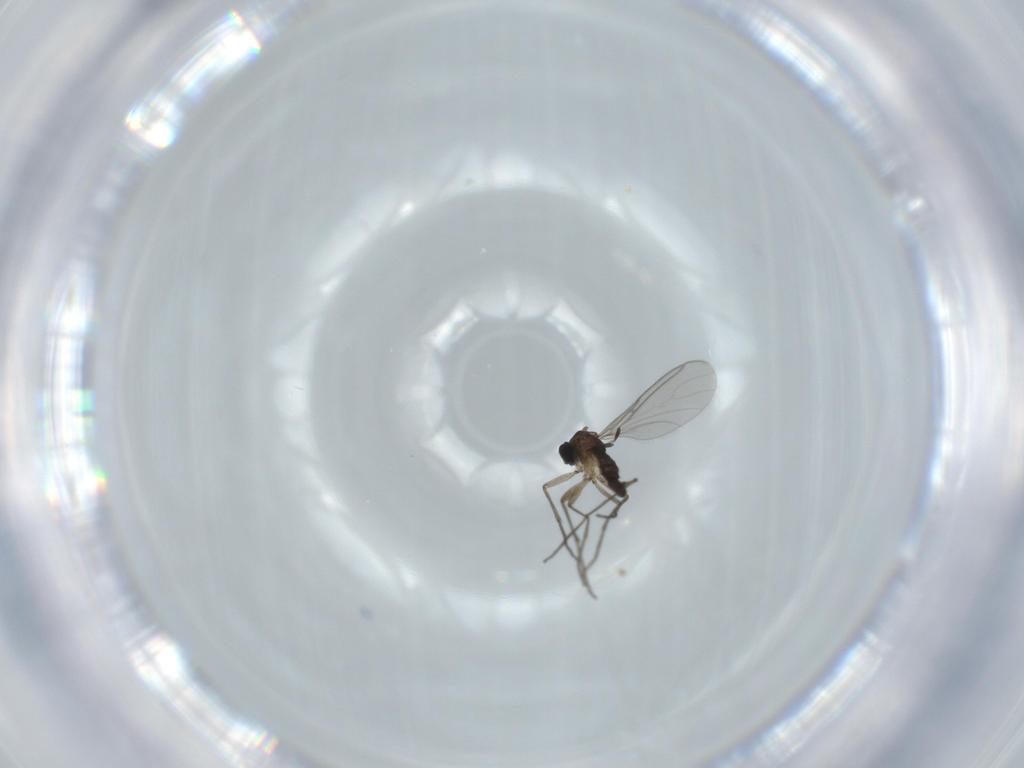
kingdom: Animalia
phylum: Arthropoda
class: Insecta
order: Diptera
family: Sciaridae
